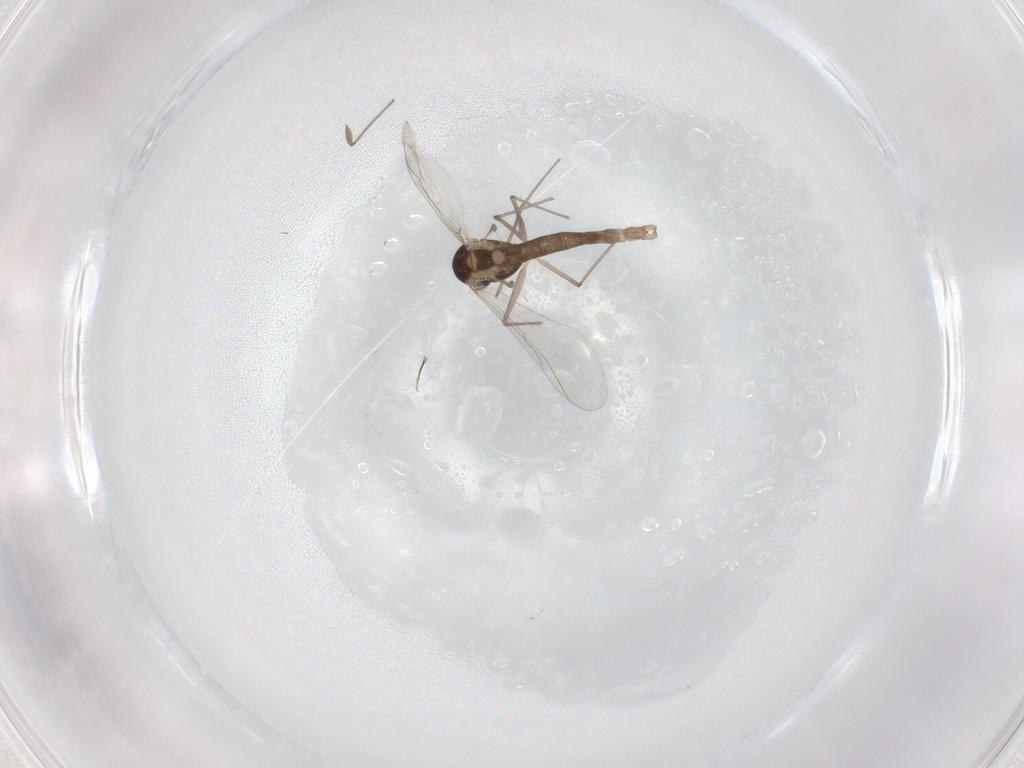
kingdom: Animalia
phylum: Arthropoda
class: Insecta
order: Diptera
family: Chironomidae
